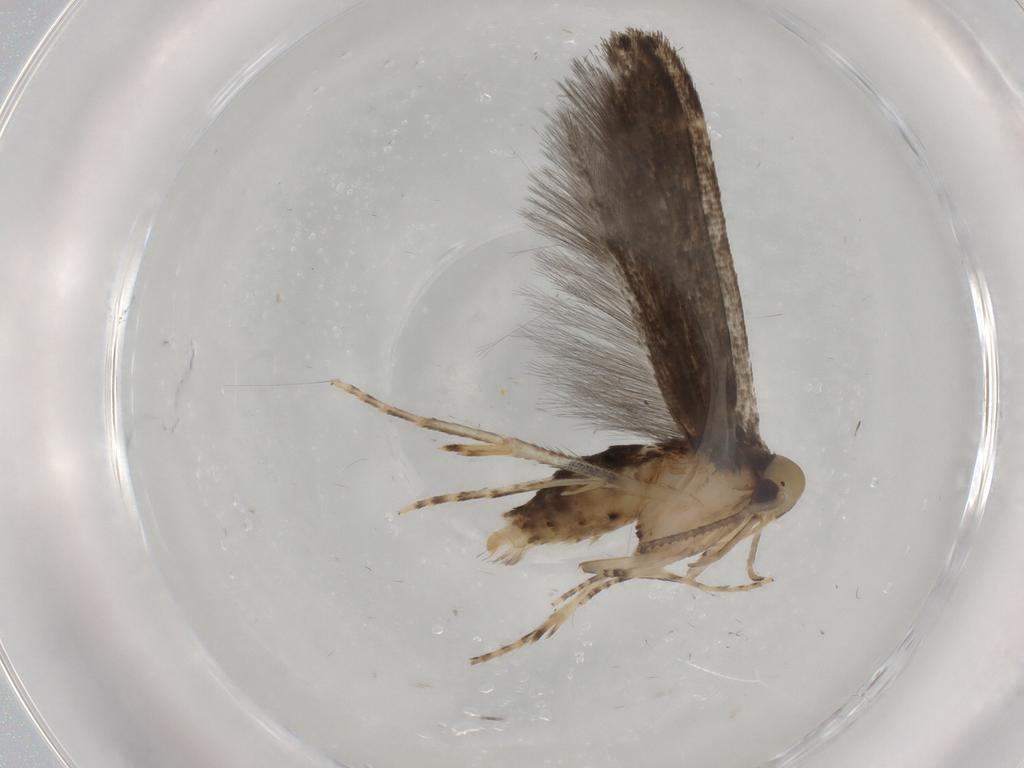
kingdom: Animalia
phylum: Arthropoda
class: Insecta
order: Lepidoptera
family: Cosmopterigidae
